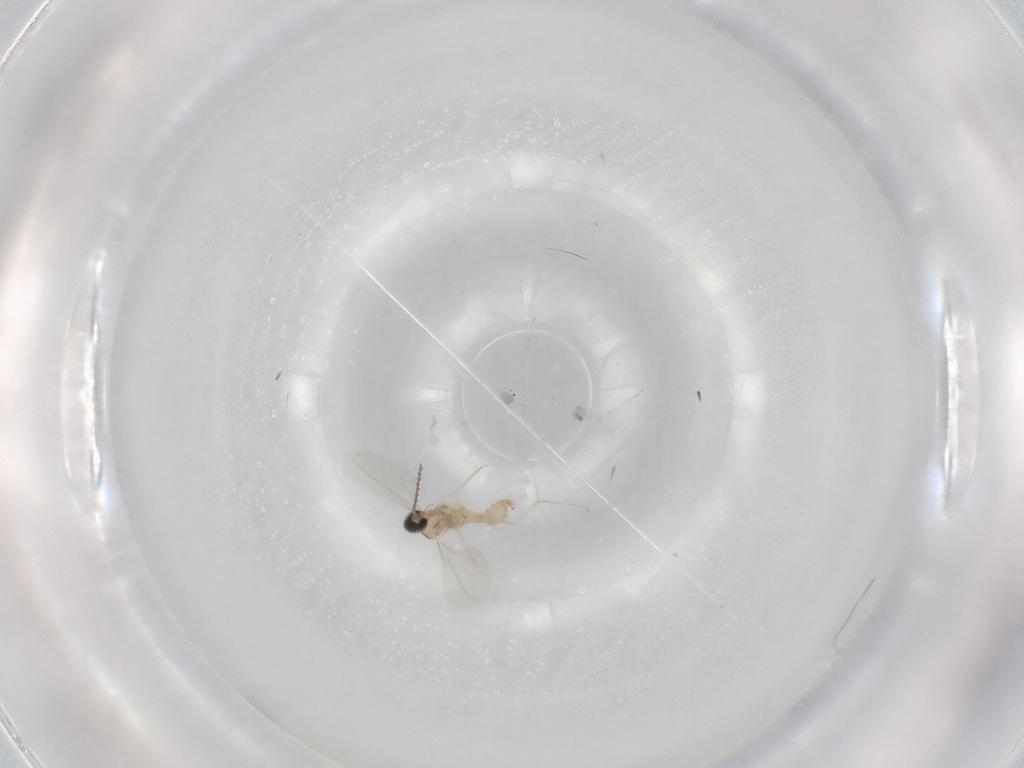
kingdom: Animalia
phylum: Arthropoda
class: Insecta
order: Diptera
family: Cecidomyiidae
